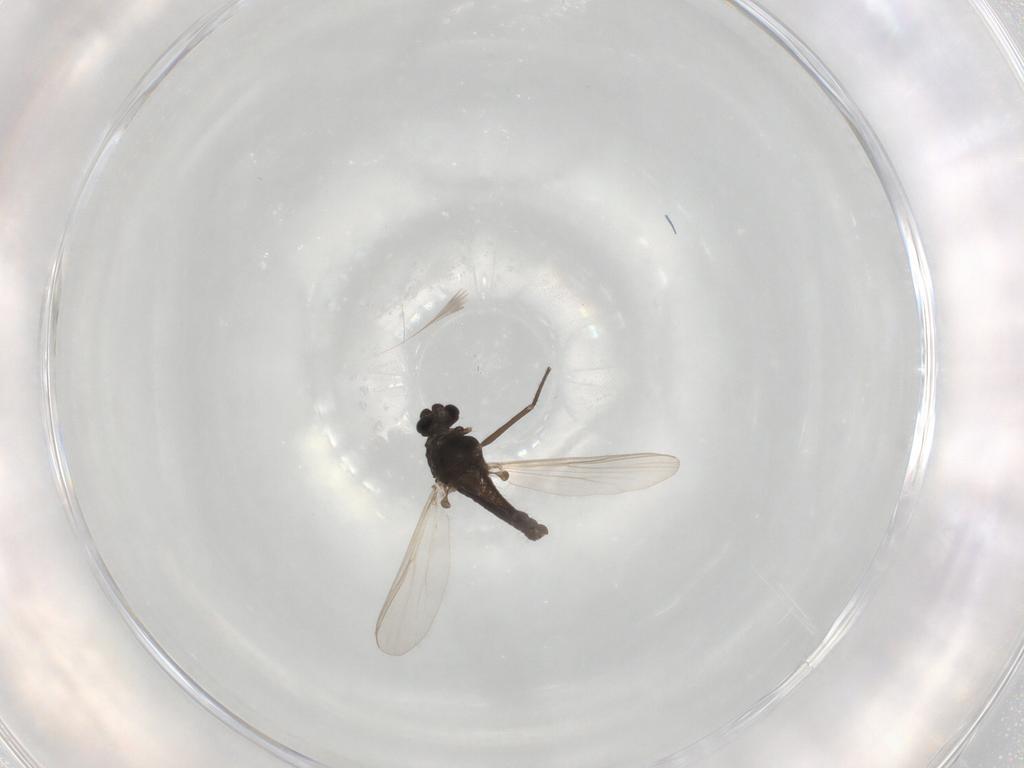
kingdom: Animalia
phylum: Arthropoda
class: Insecta
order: Diptera
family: Chironomidae
